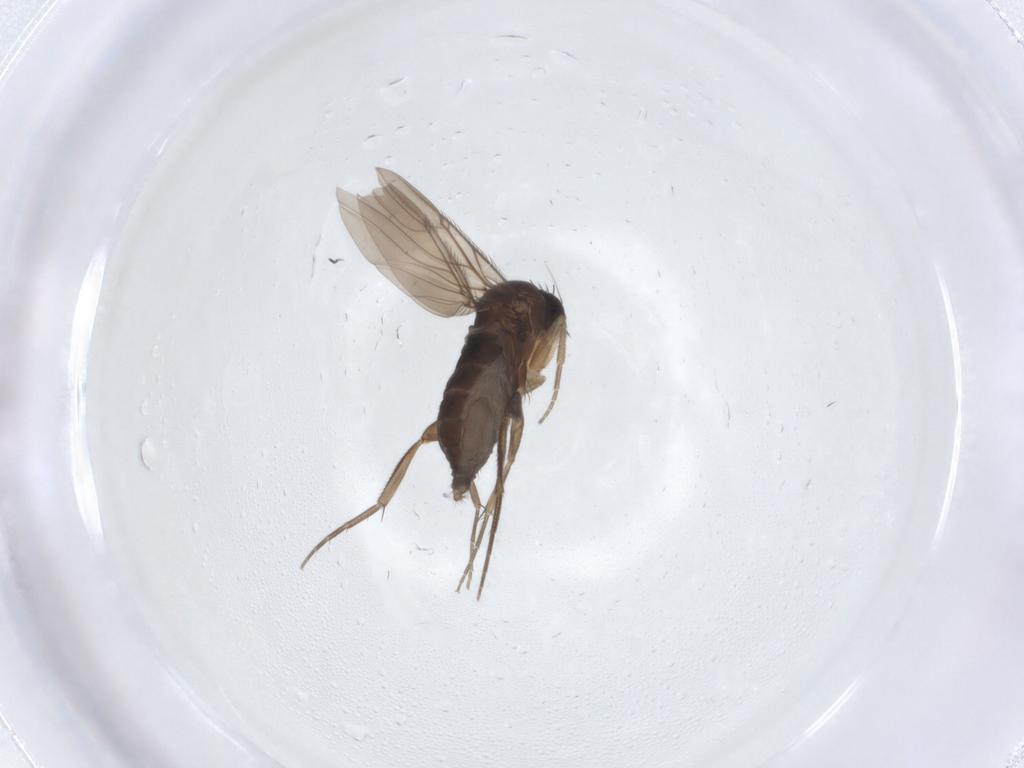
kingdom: Animalia
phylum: Arthropoda
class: Insecta
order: Diptera
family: Phoridae
